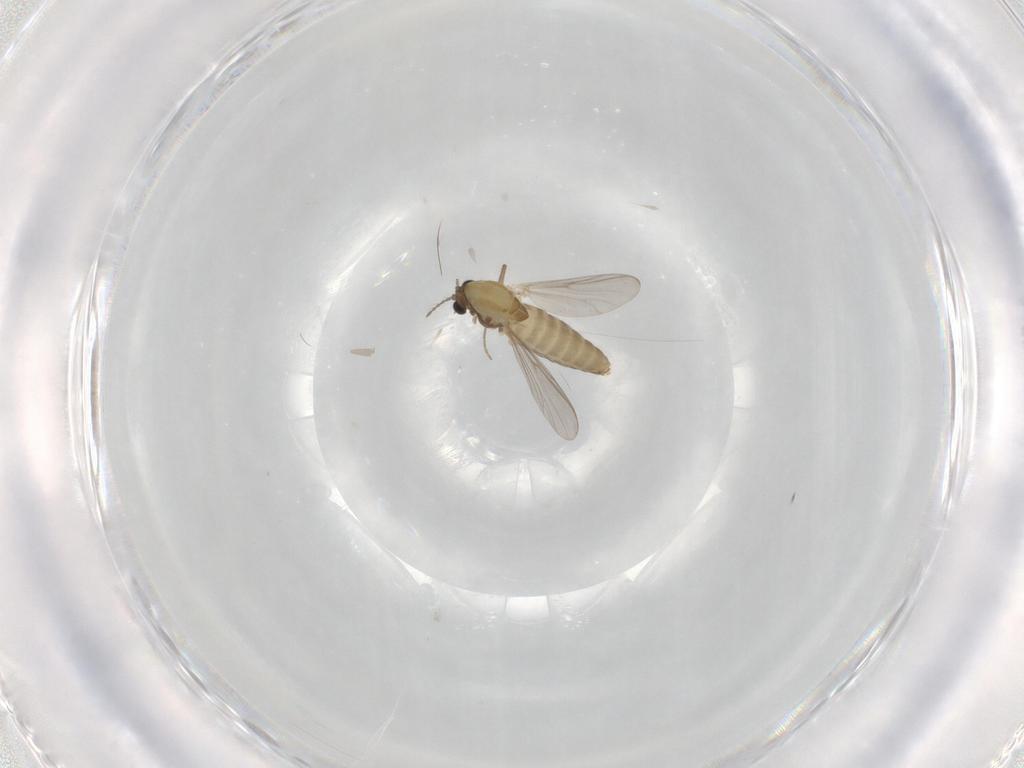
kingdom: Animalia
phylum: Arthropoda
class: Insecta
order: Diptera
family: Chironomidae
